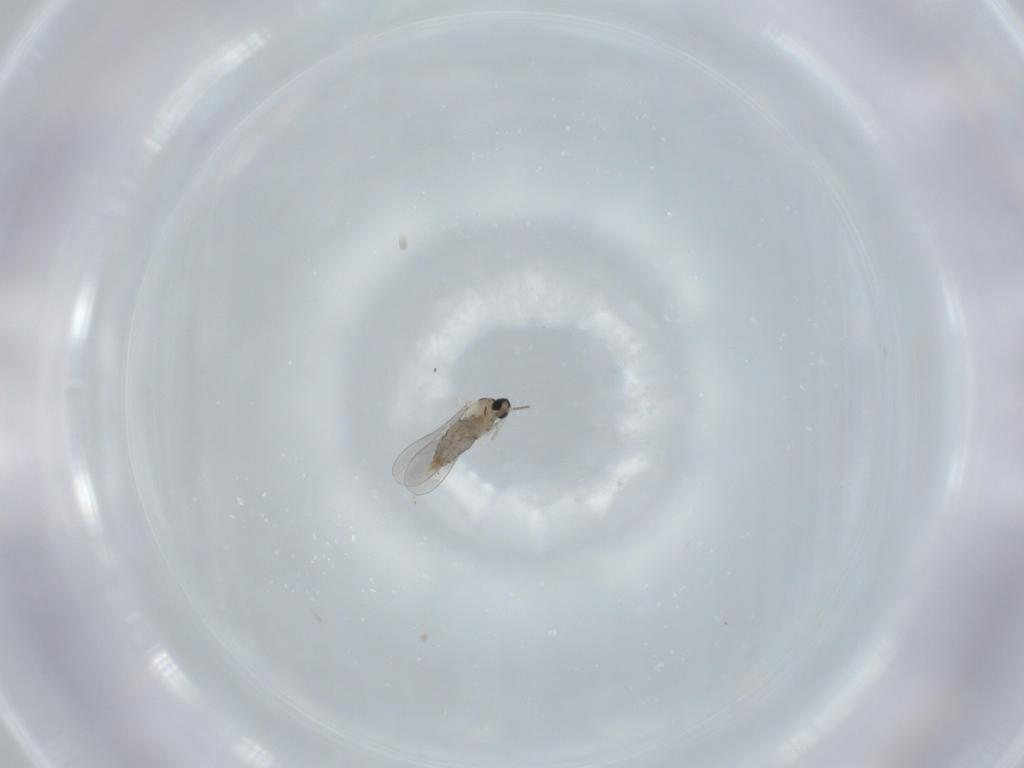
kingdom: Animalia
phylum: Arthropoda
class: Insecta
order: Diptera
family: Cecidomyiidae
